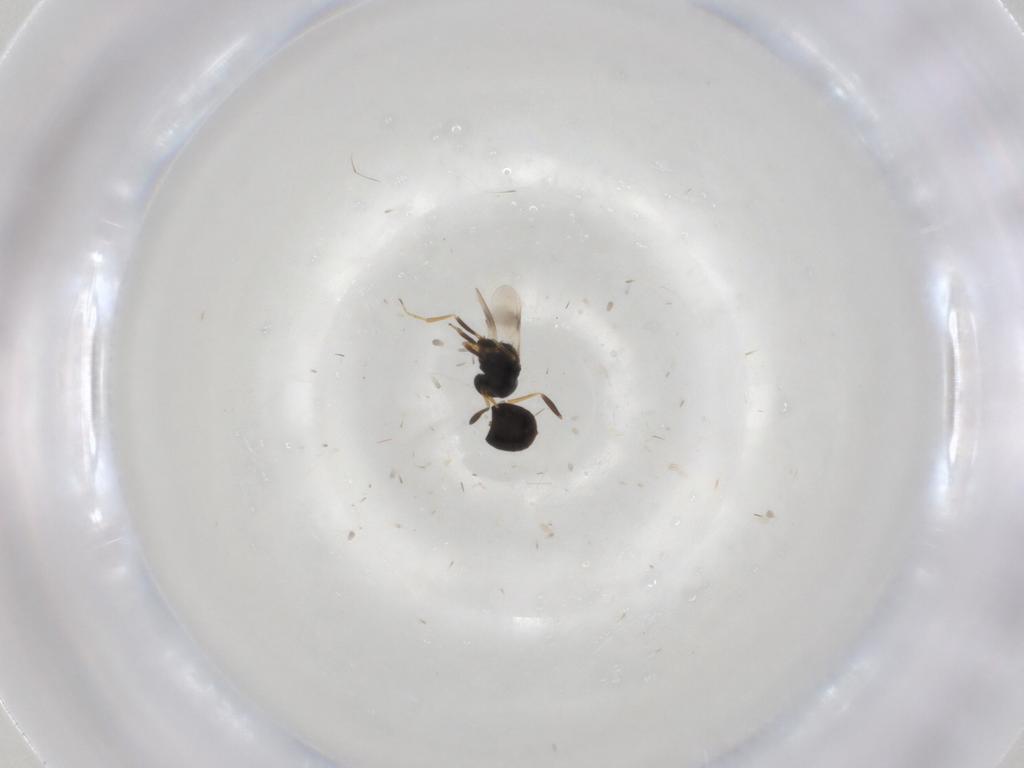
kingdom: Animalia
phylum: Arthropoda
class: Insecta
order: Hymenoptera
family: Scelionidae
